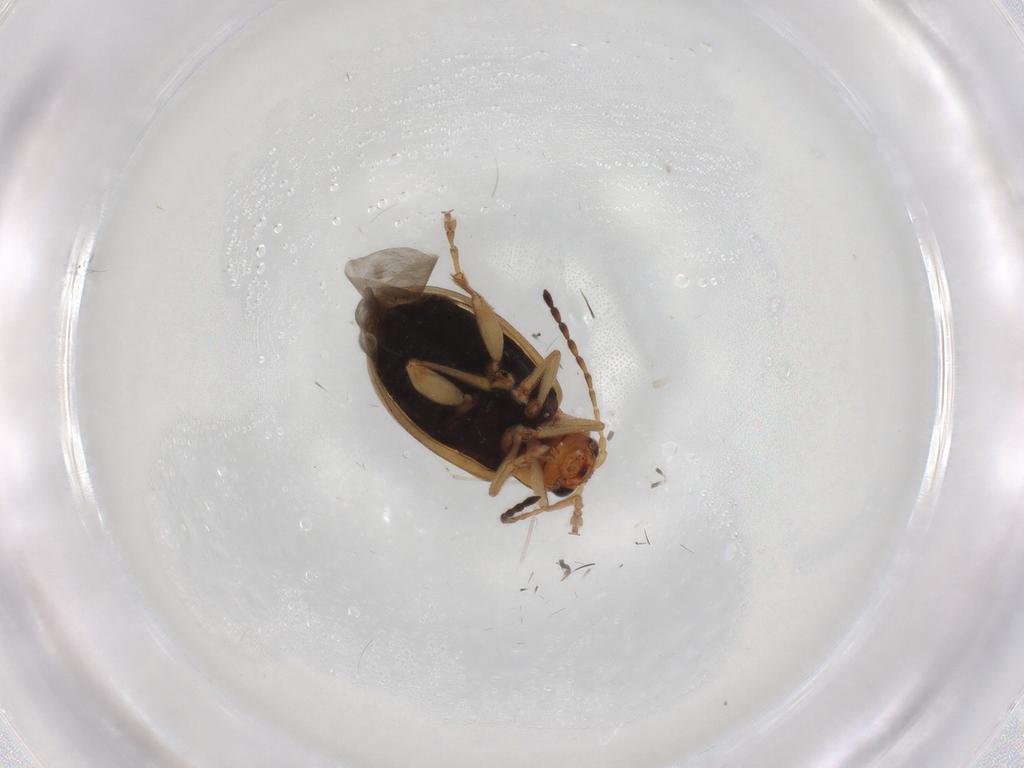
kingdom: Animalia
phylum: Arthropoda
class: Insecta
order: Coleoptera
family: Chrysomelidae
